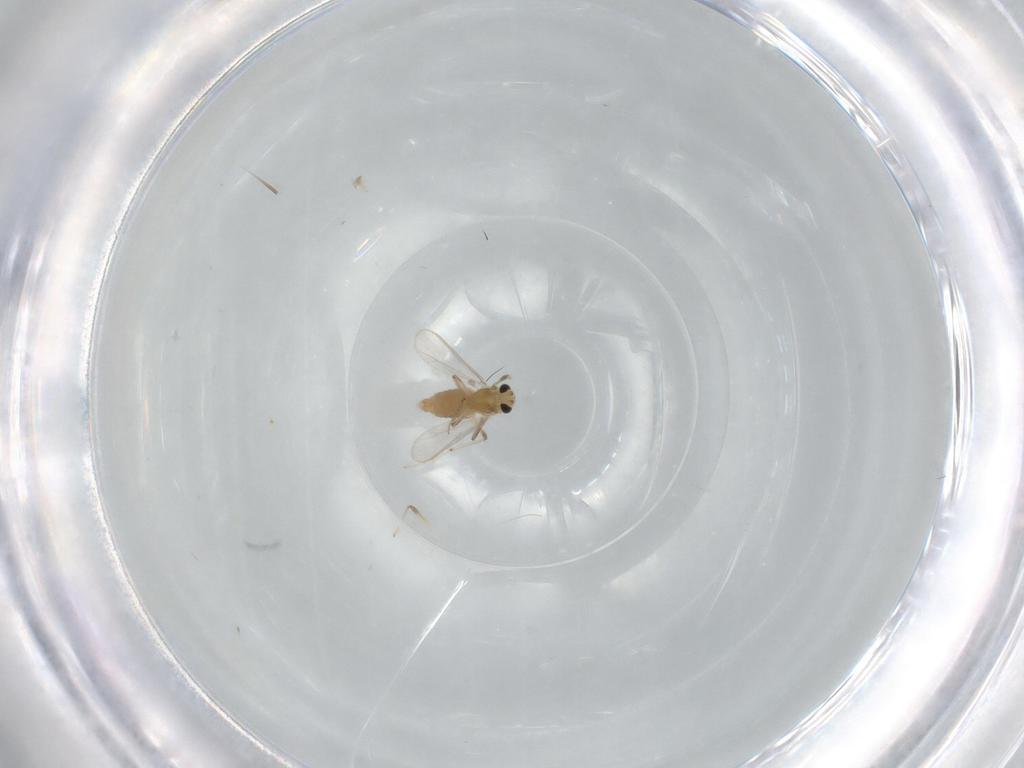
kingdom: Animalia
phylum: Arthropoda
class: Insecta
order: Diptera
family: Chironomidae
